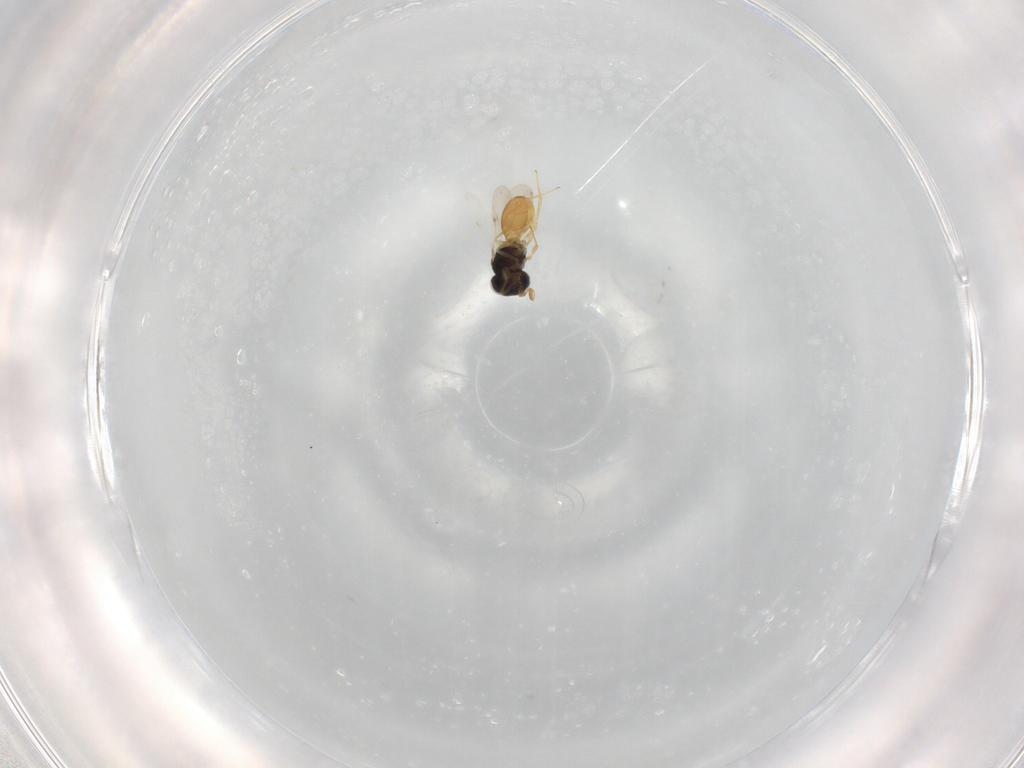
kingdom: Animalia
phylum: Arthropoda
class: Insecta
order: Hymenoptera
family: Scelionidae
